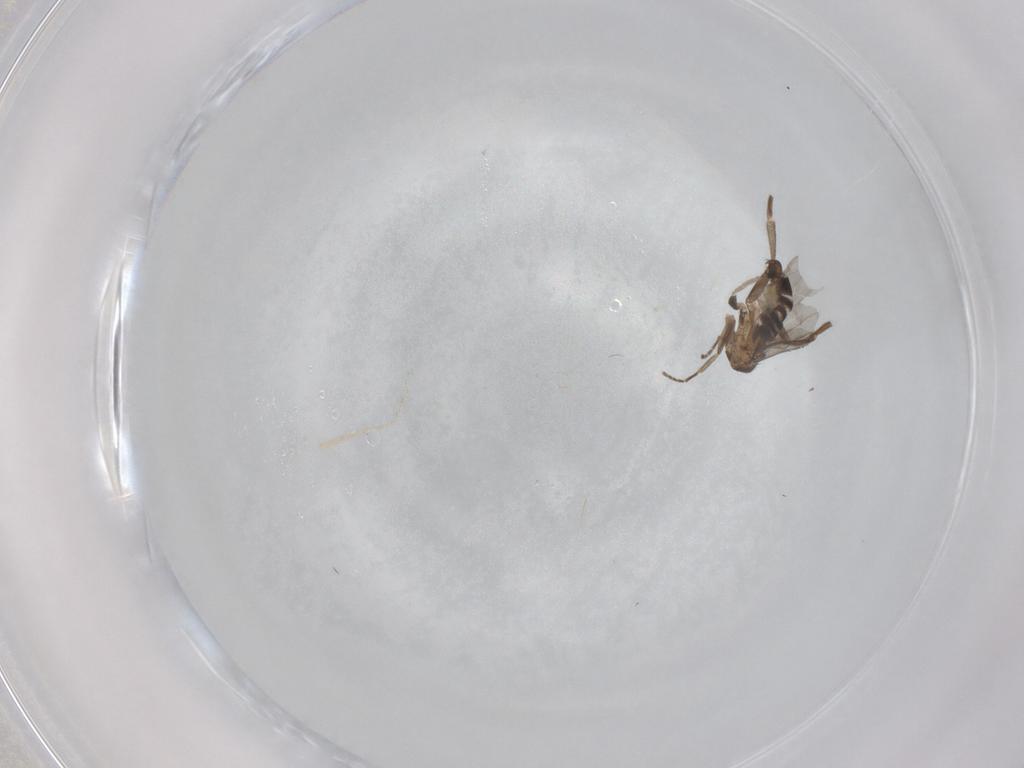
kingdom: Animalia
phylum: Arthropoda
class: Insecta
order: Diptera
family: Phoridae
